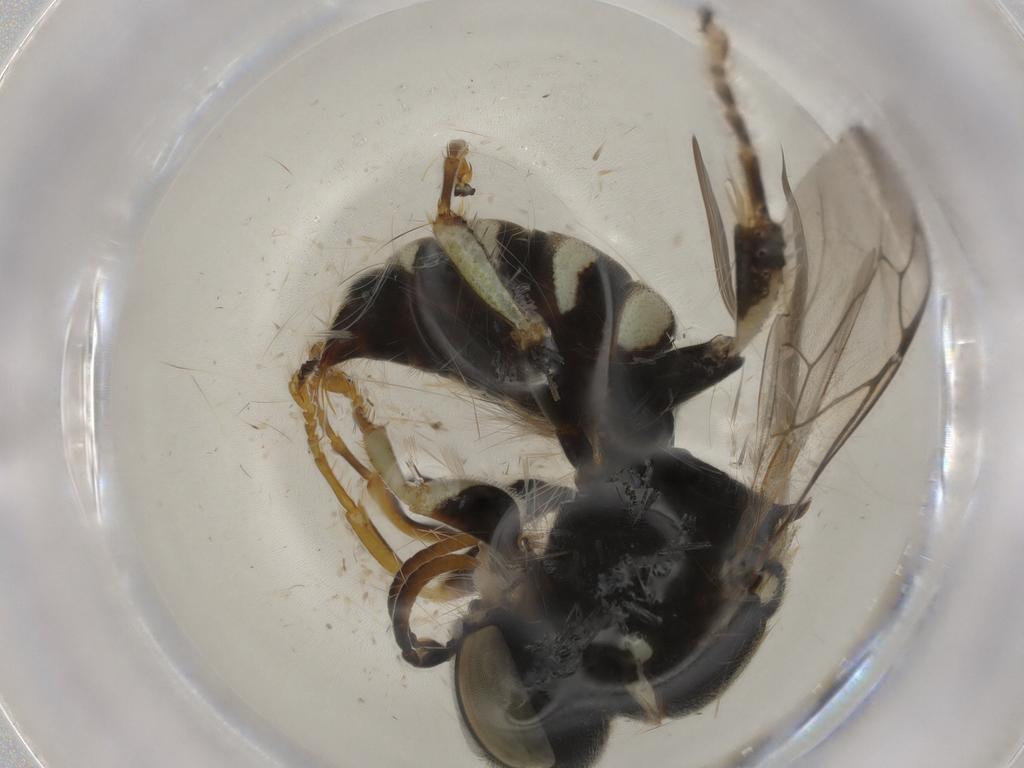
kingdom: Animalia
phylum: Arthropoda
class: Insecta
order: Hymenoptera
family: Crabronidae
